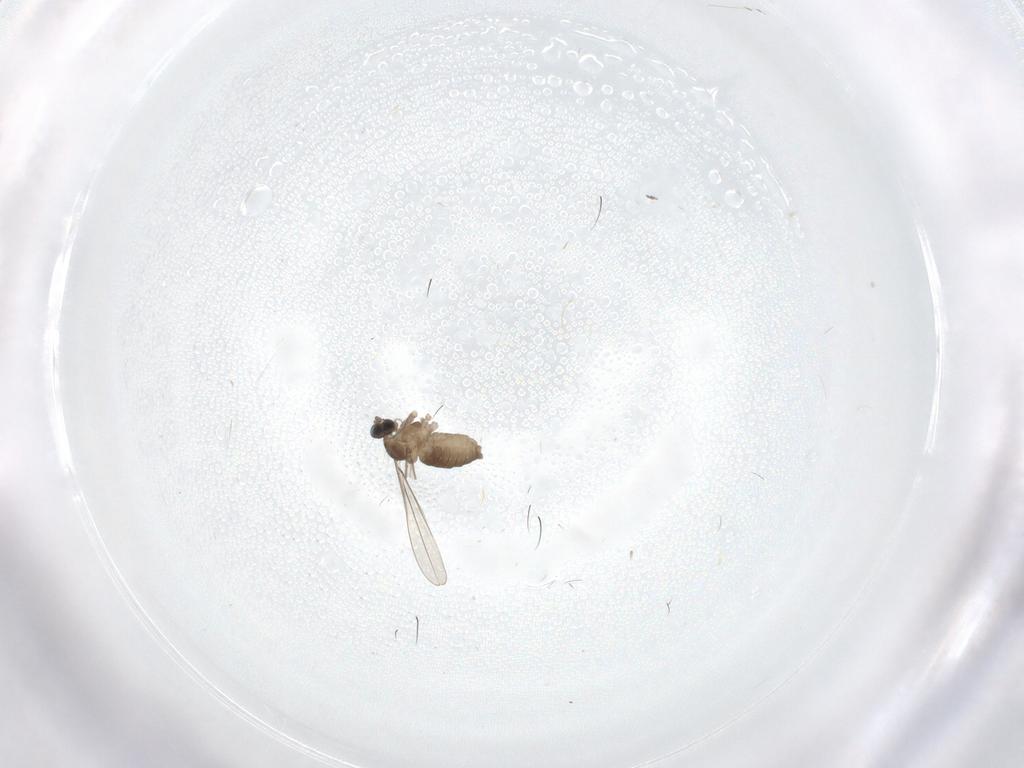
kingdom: Animalia
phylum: Arthropoda
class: Insecta
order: Diptera
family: Cecidomyiidae
